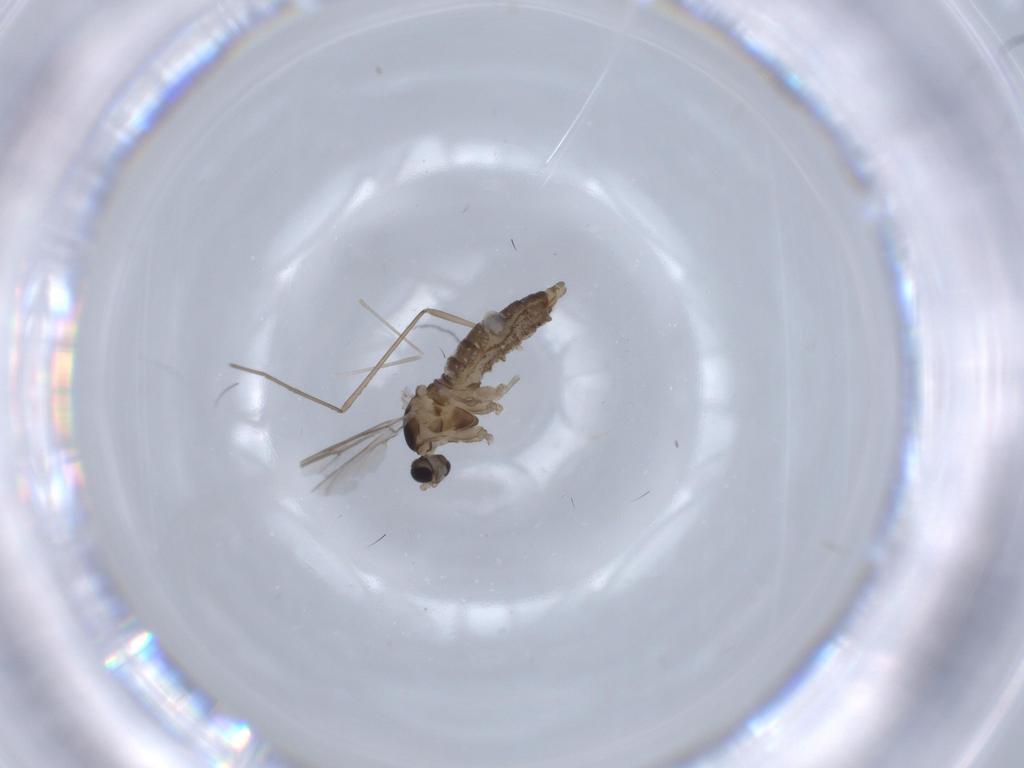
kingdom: Animalia
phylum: Arthropoda
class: Insecta
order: Diptera
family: Cecidomyiidae
